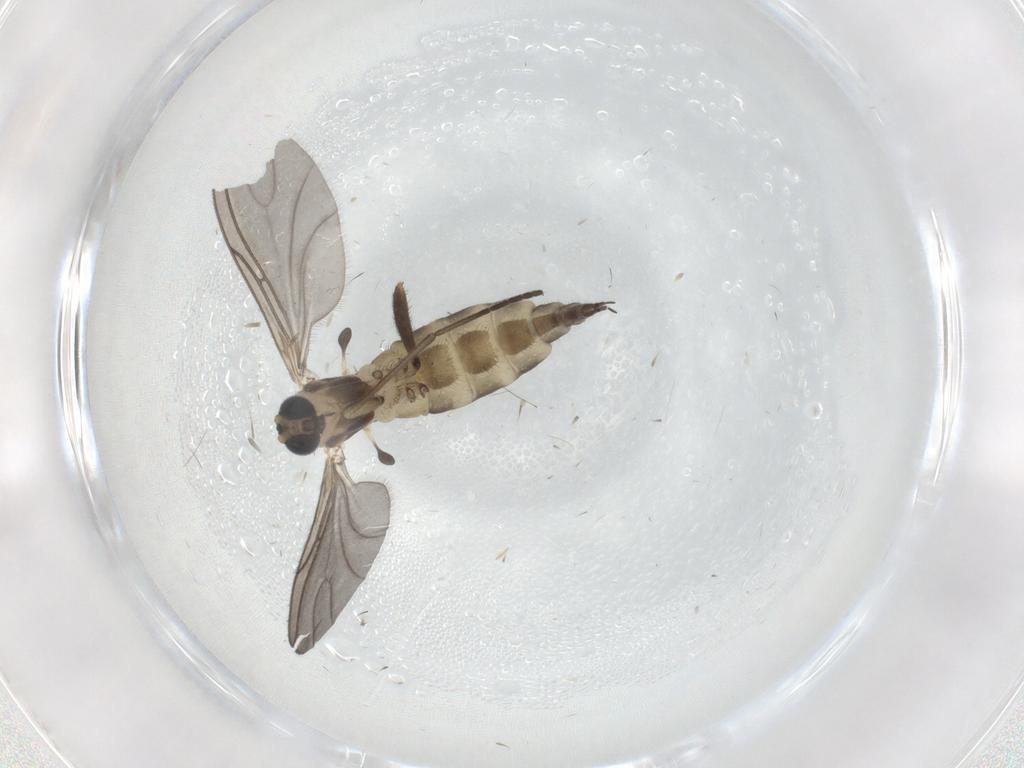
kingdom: Animalia
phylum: Arthropoda
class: Insecta
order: Diptera
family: Sciaridae
